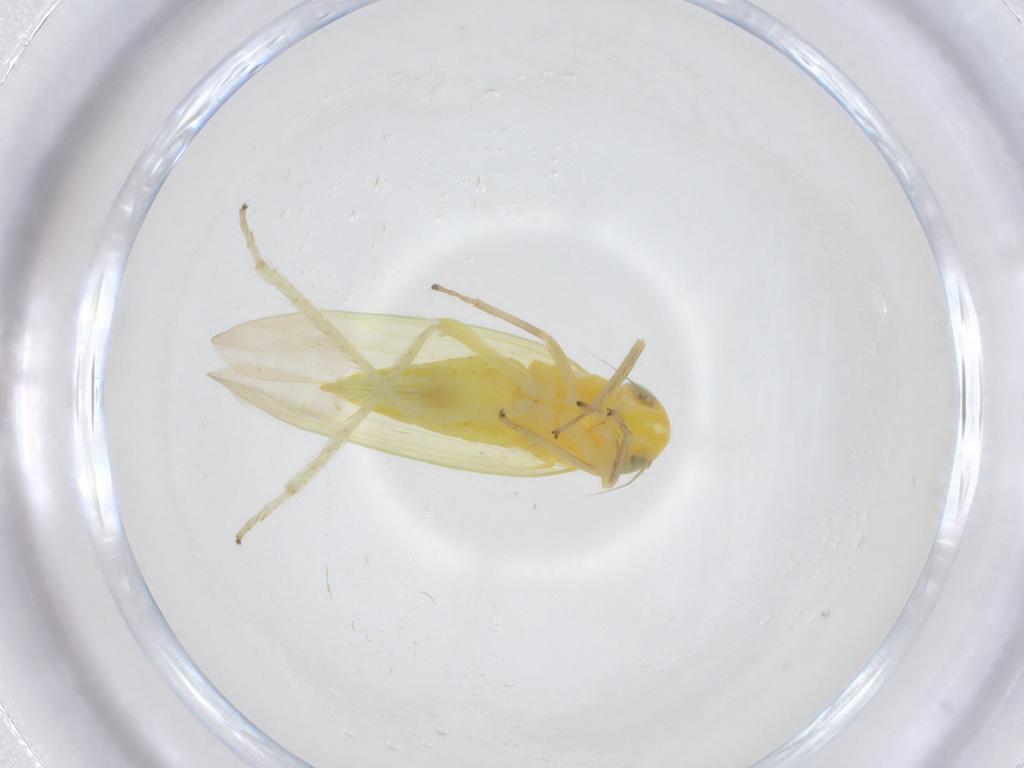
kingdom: Animalia
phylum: Arthropoda
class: Insecta
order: Hemiptera
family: Cicadellidae
